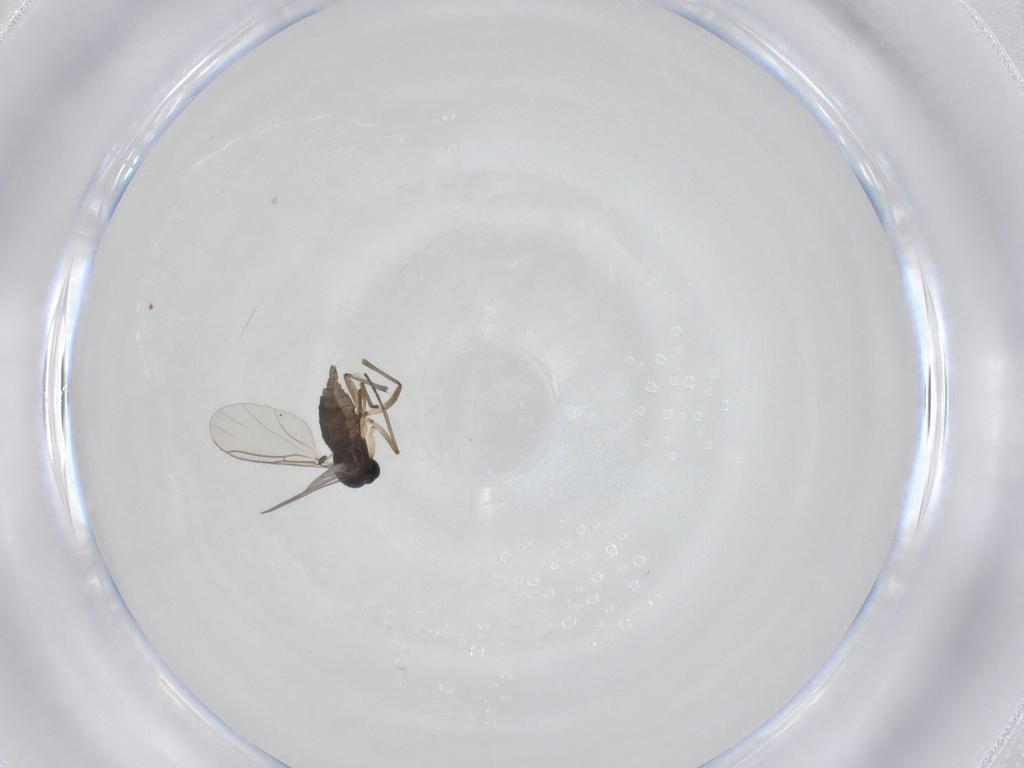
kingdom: Animalia
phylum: Arthropoda
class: Insecta
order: Diptera
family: Sciaridae
